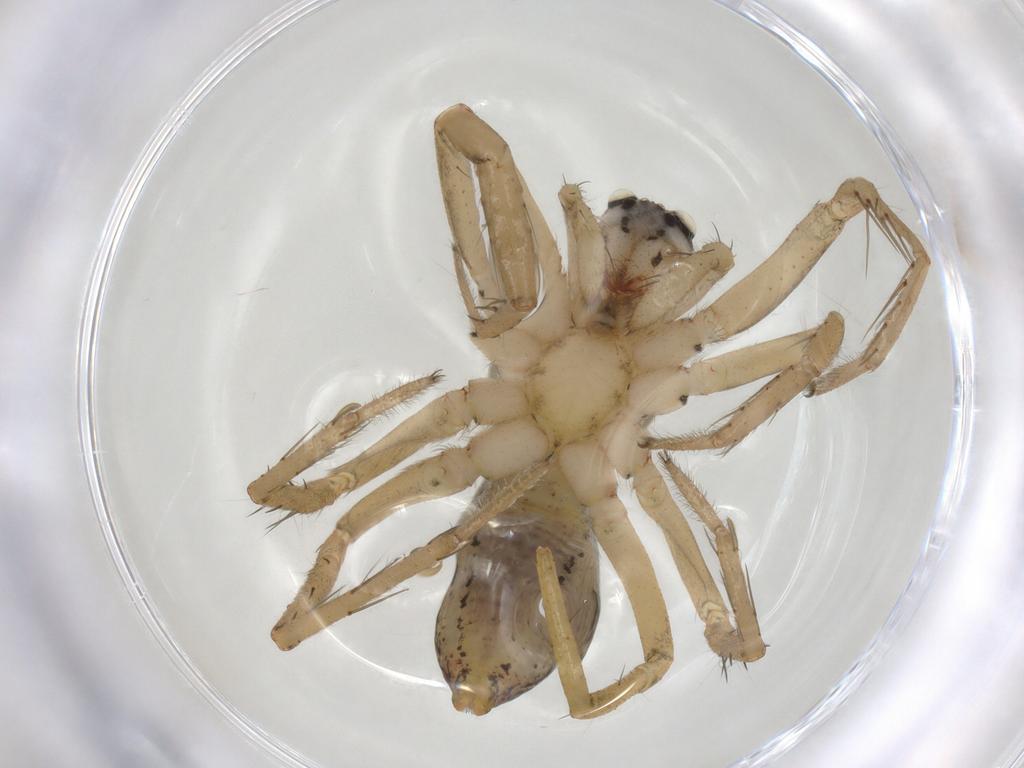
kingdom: Animalia
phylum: Arthropoda
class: Arachnida
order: Araneae
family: Lycosidae
